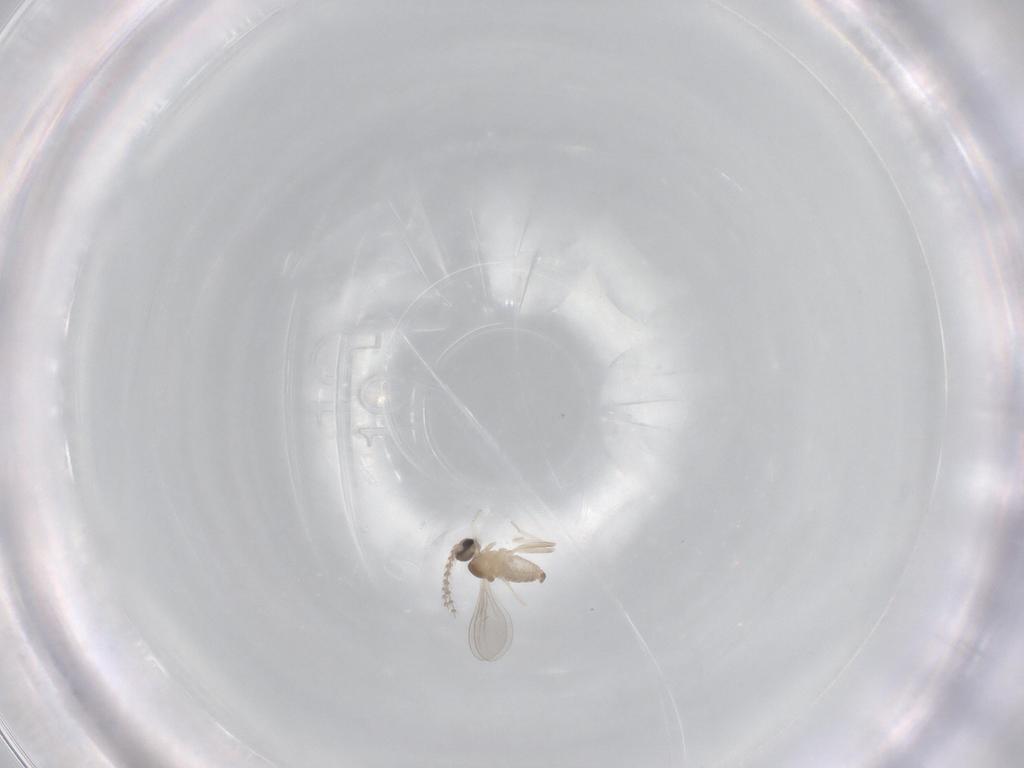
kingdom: Animalia
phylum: Arthropoda
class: Insecta
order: Diptera
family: Cecidomyiidae
